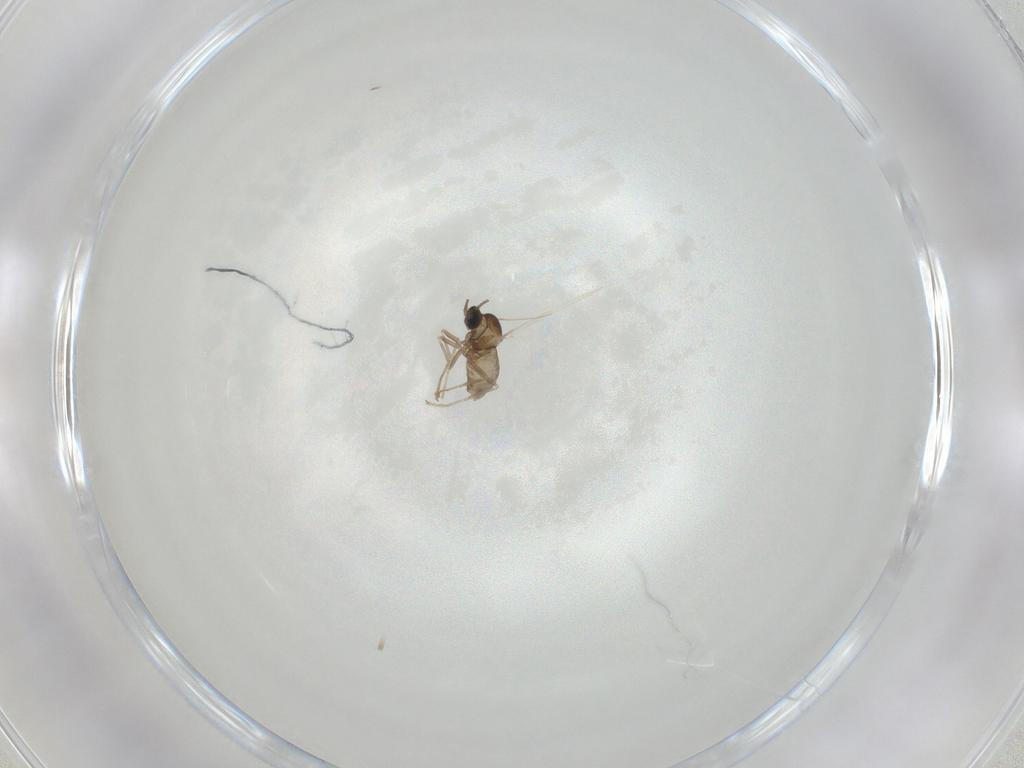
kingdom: Animalia
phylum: Arthropoda
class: Insecta
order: Diptera
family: Cecidomyiidae
